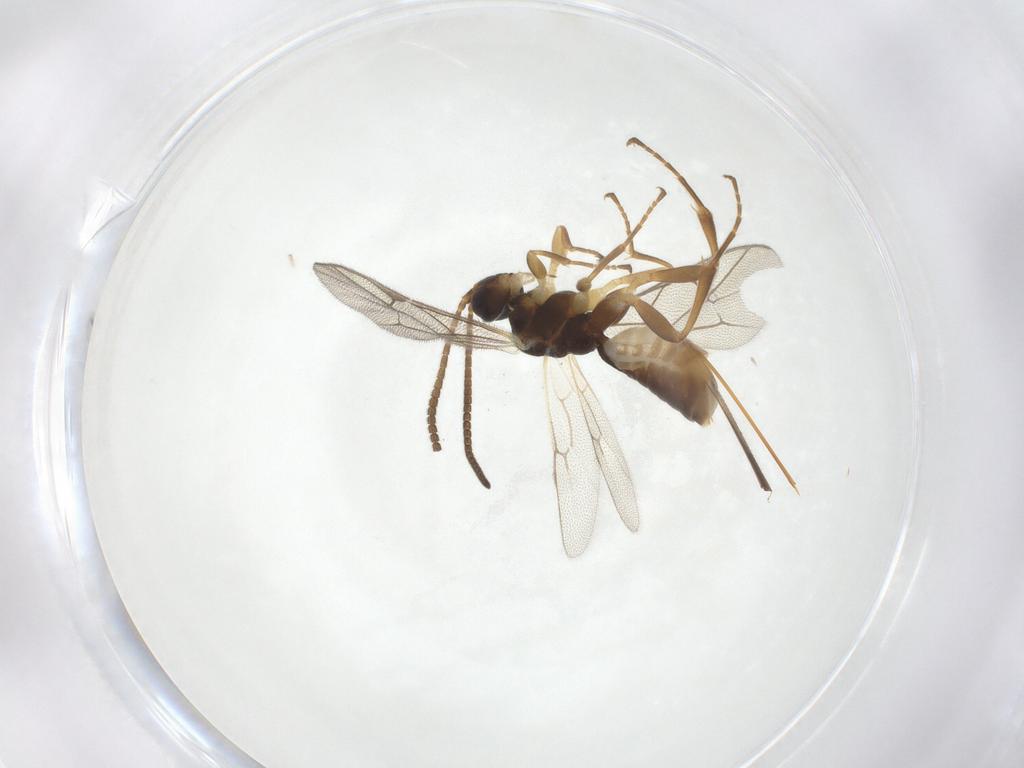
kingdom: Animalia
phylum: Arthropoda
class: Insecta
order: Hymenoptera
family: Ichneumonidae
